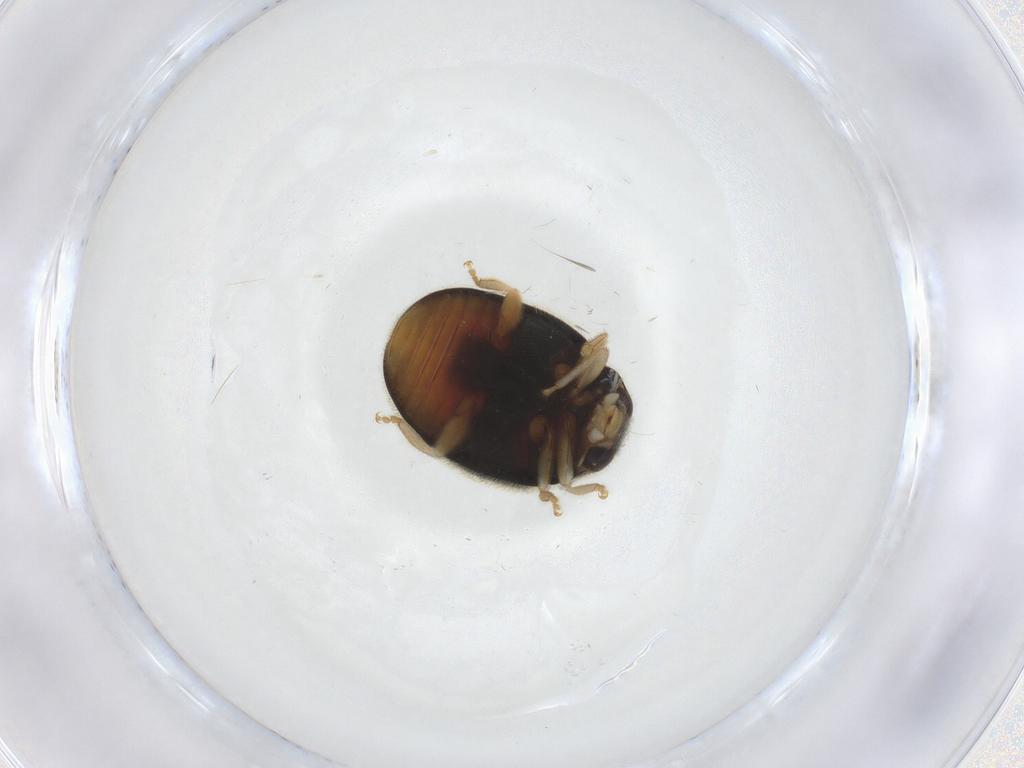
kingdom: Animalia
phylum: Arthropoda
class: Insecta
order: Coleoptera
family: Coccinellidae
